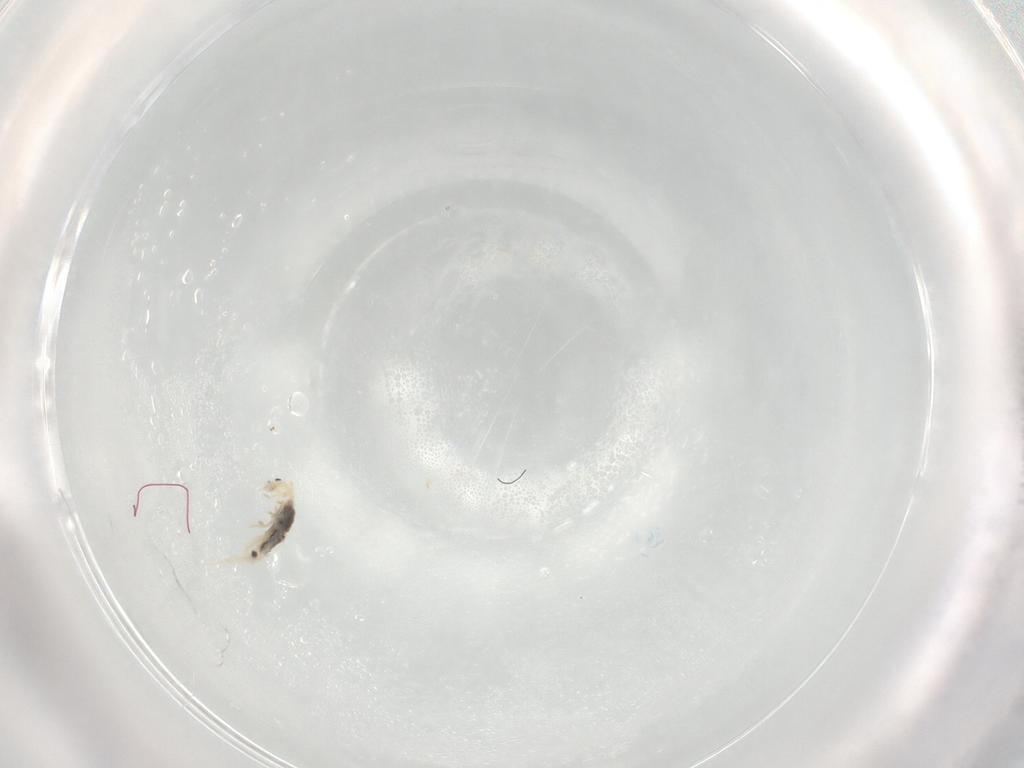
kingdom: Animalia
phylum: Arthropoda
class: Collembola
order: Entomobryomorpha
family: Entomobryidae
